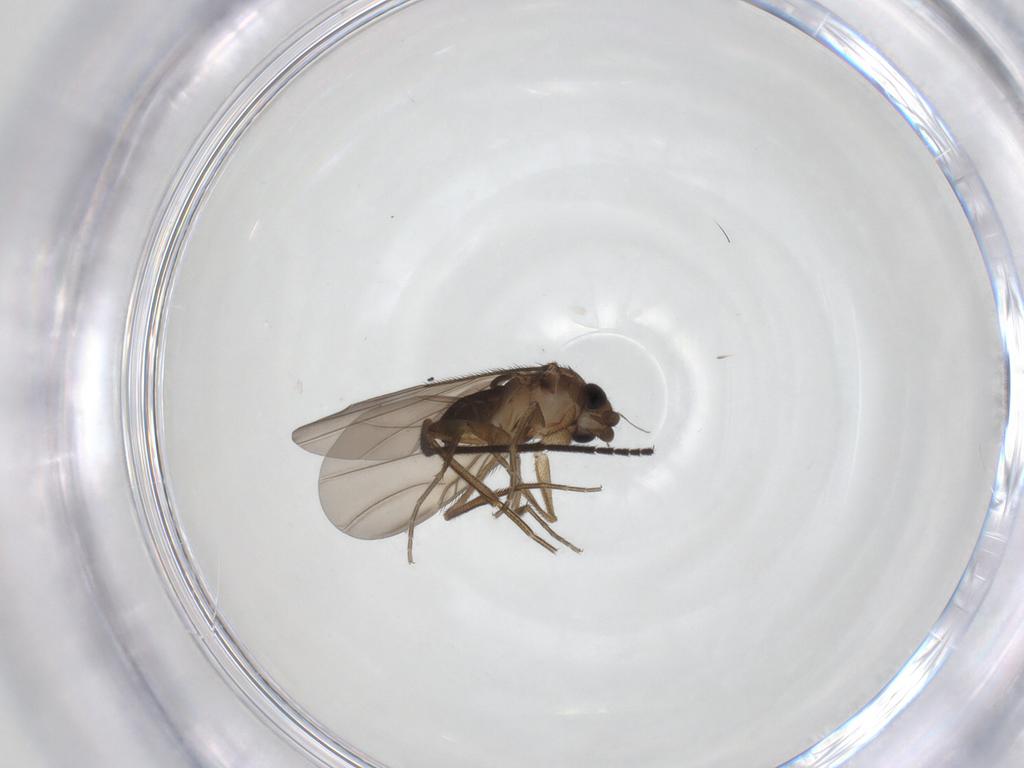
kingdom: Animalia
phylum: Arthropoda
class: Insecta
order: Diptera
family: Phoridae
